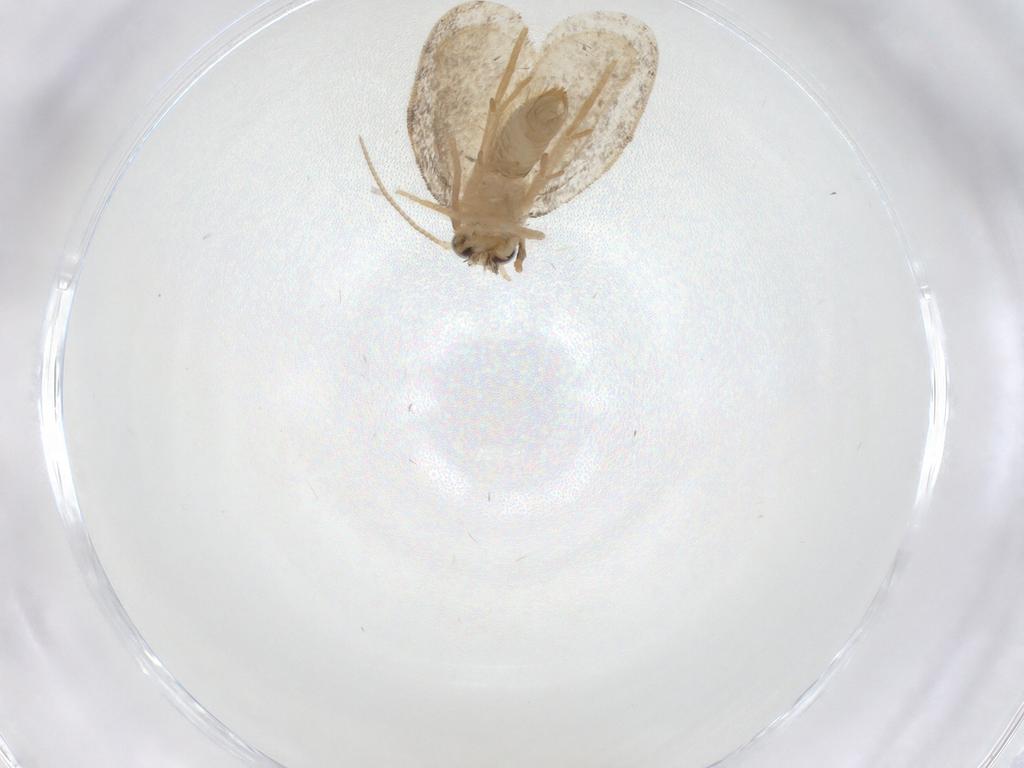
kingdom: Animalia
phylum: Arthropoda
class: Insecta
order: Lepidoptera
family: Psychidae
